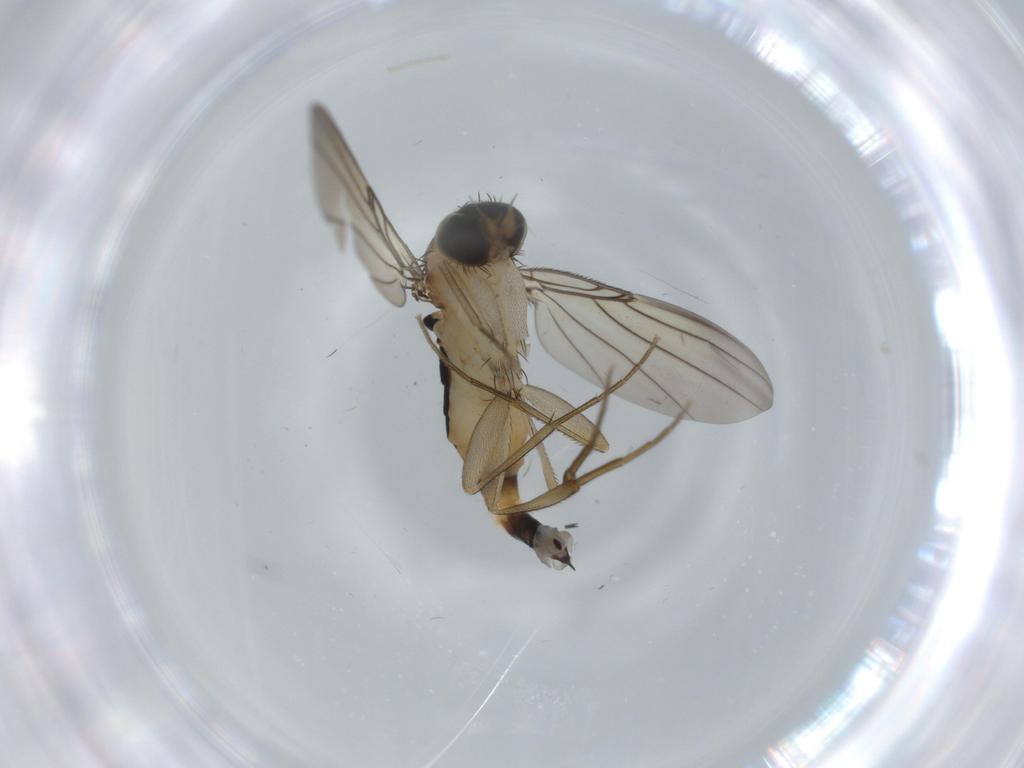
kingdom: Animalia
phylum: Arthropoda
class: Insecta
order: Diptera
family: Phoridae
